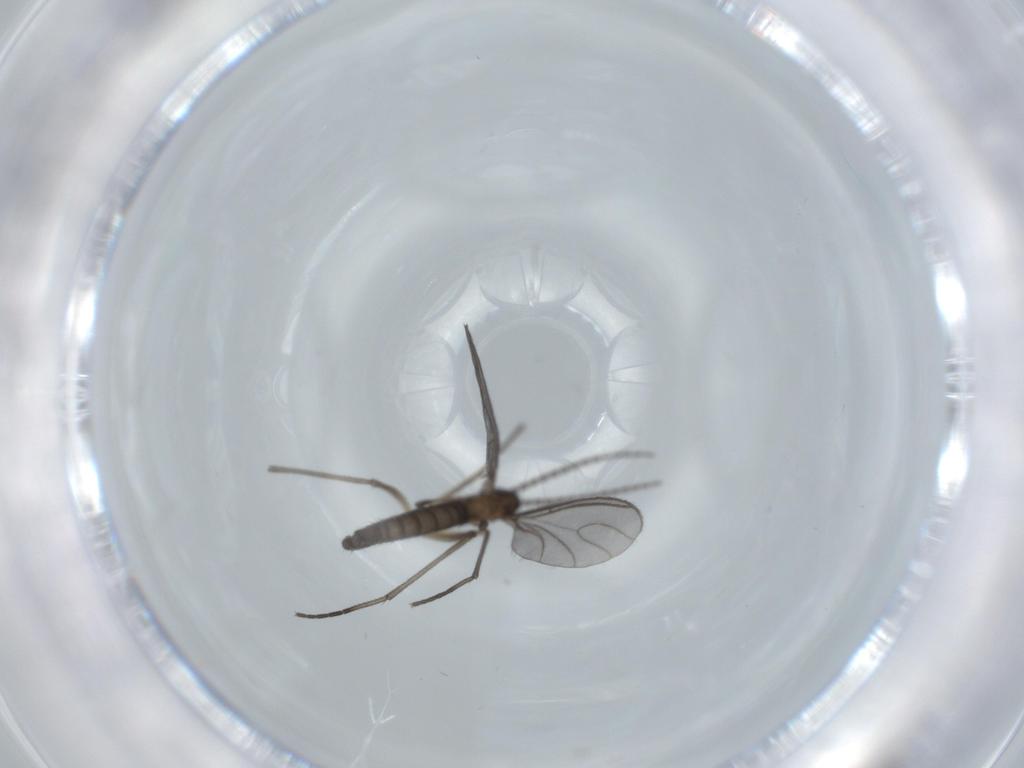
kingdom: Animalia
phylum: Arthropoda
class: Insecta
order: Diptera
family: Sciaridae
